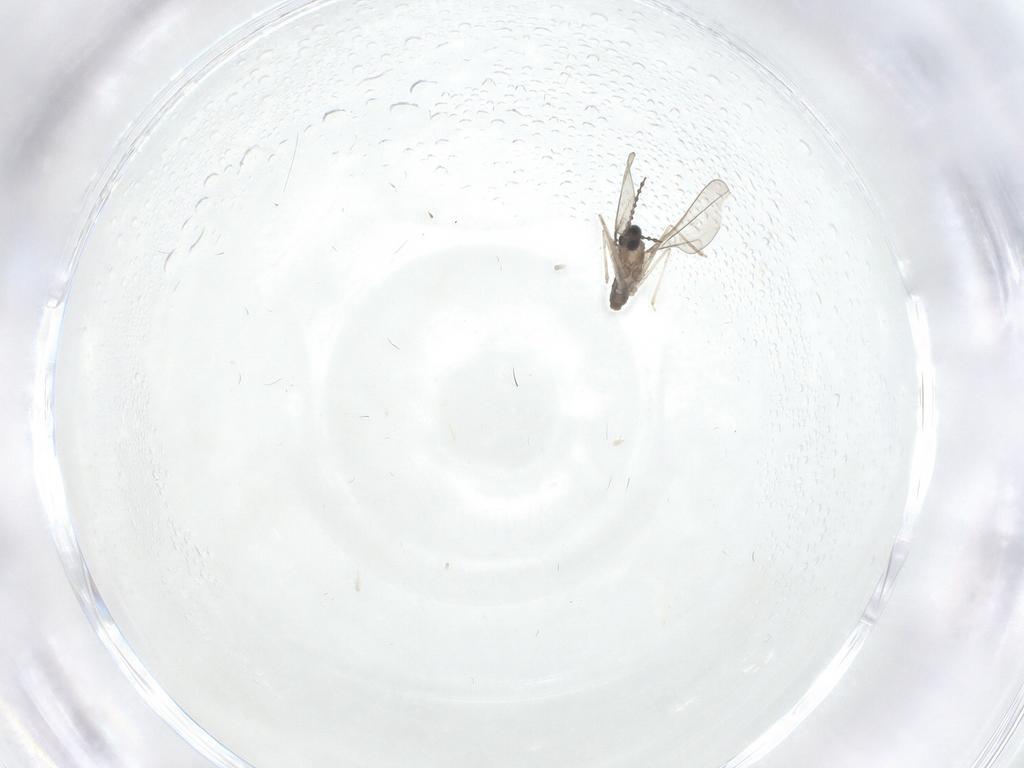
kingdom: Animalia
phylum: Arthropoda
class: Insecta
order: Diptera
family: Cecidomyiidae
